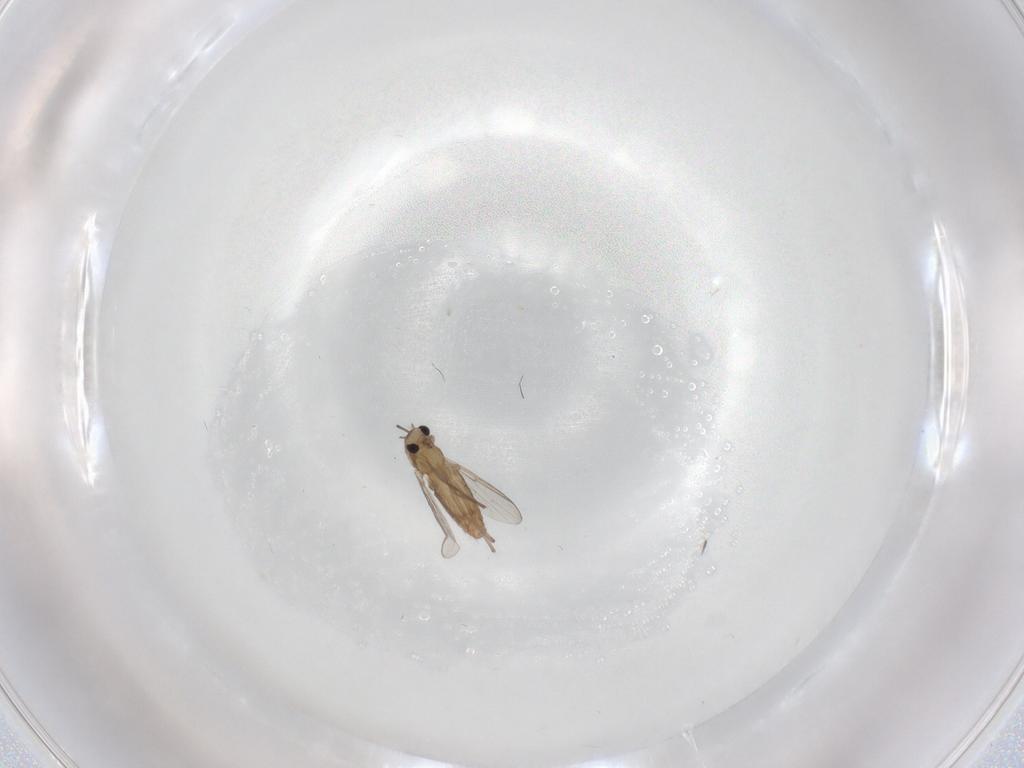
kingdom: Animalia
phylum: Arthropoda
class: Insecta
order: Diptera
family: Chironomidae
